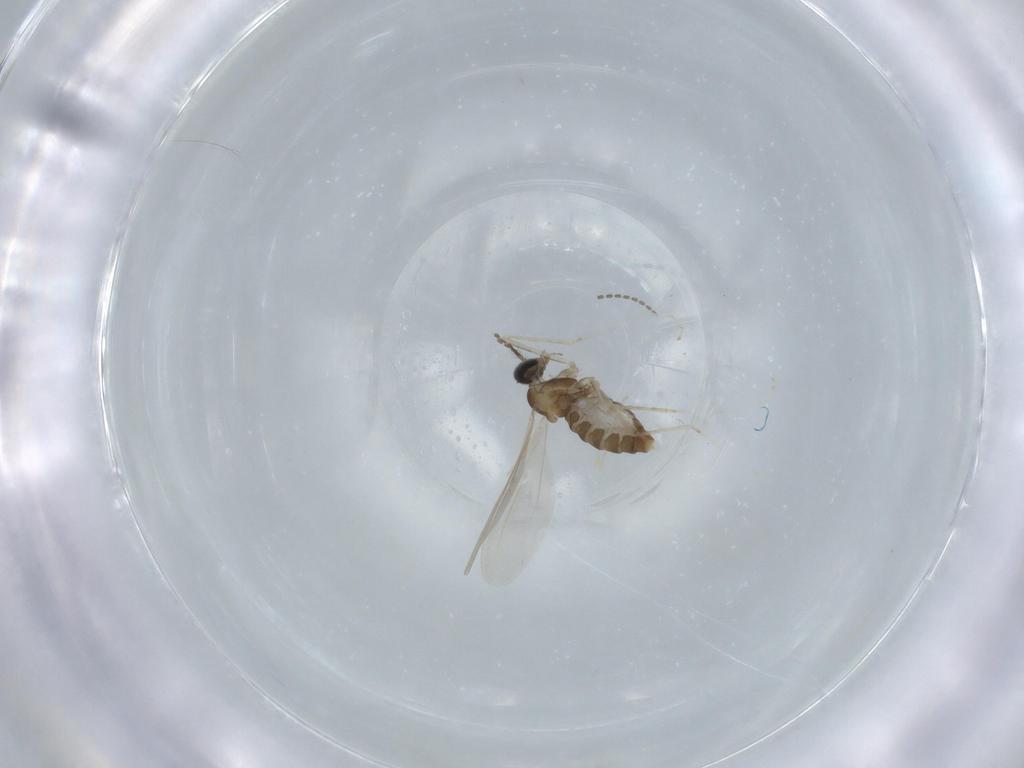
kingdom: Animalia
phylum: Arthropoda
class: Insecta
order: Diptera
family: Cecidomyiidae
